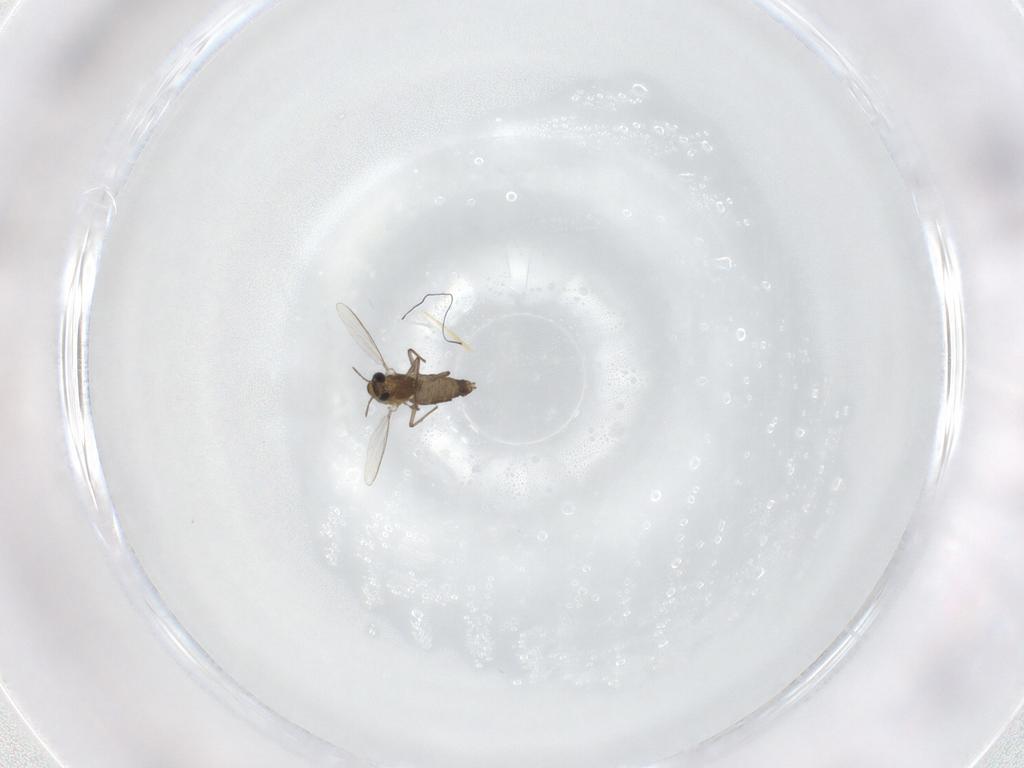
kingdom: Animalia
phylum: Arthropoda
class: Insecta
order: Diptera
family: Chironomidae
